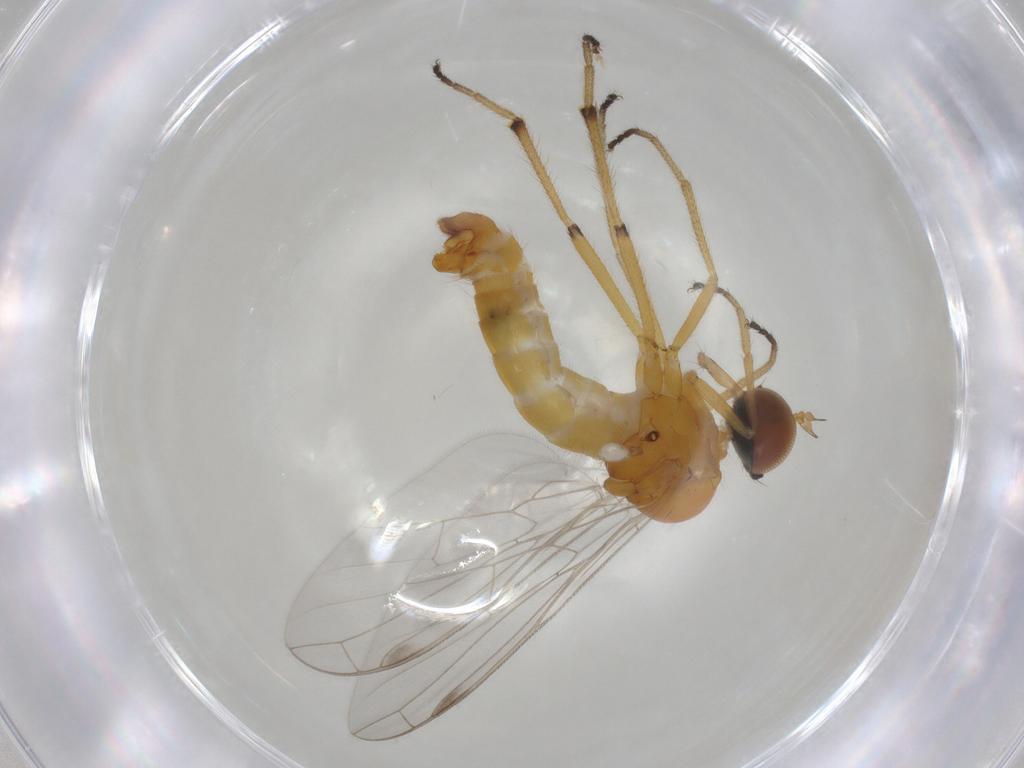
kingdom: Animalia
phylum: Arthropoda
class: Insecta
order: Diptera
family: Empididae
